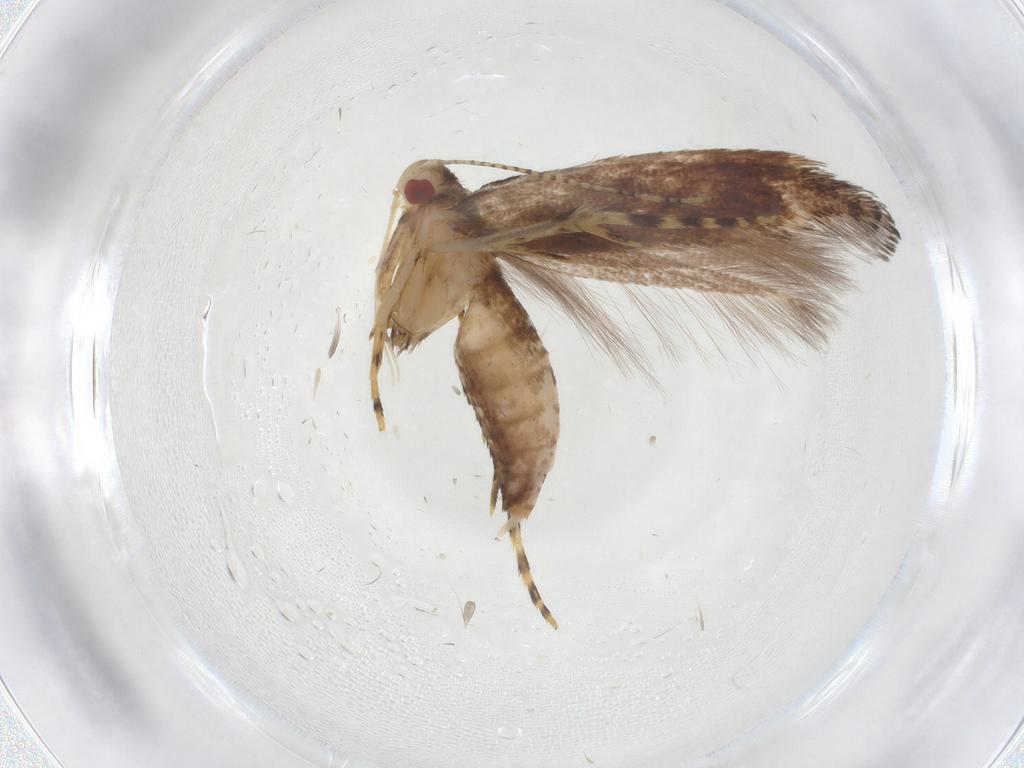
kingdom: Animalia
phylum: Arthropoda
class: Insecta
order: Lepidoptera
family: Cosmopterigidae
